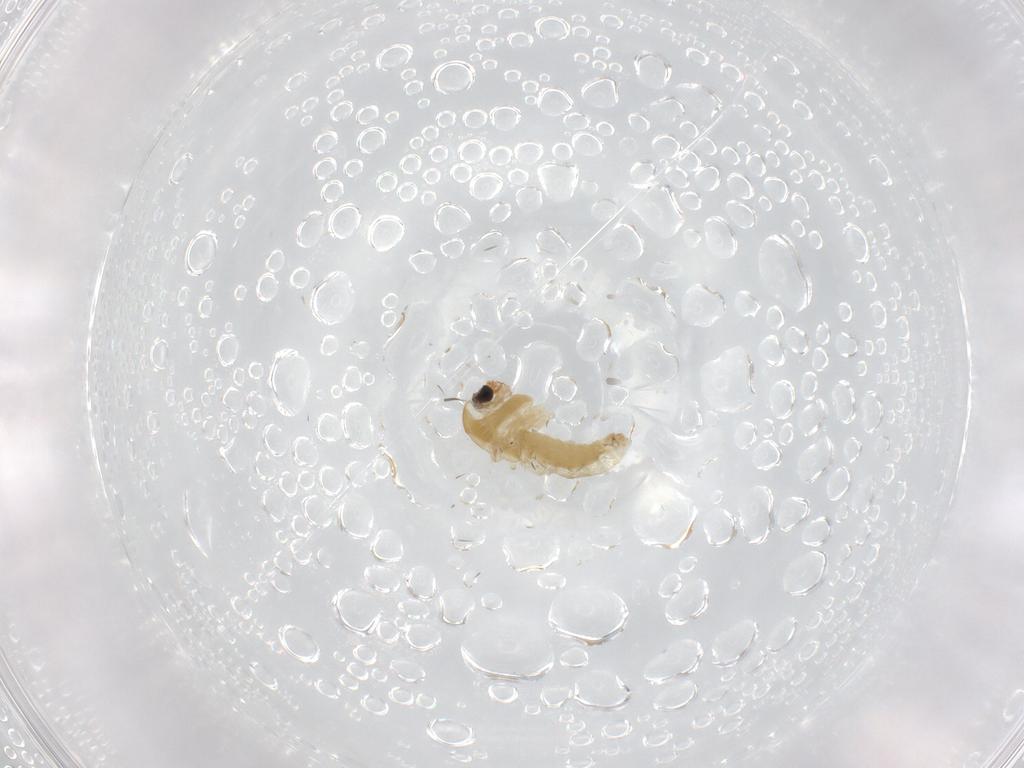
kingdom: Animalia
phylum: Arthropoda
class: Insecta
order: Diptera
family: Chironomidae
